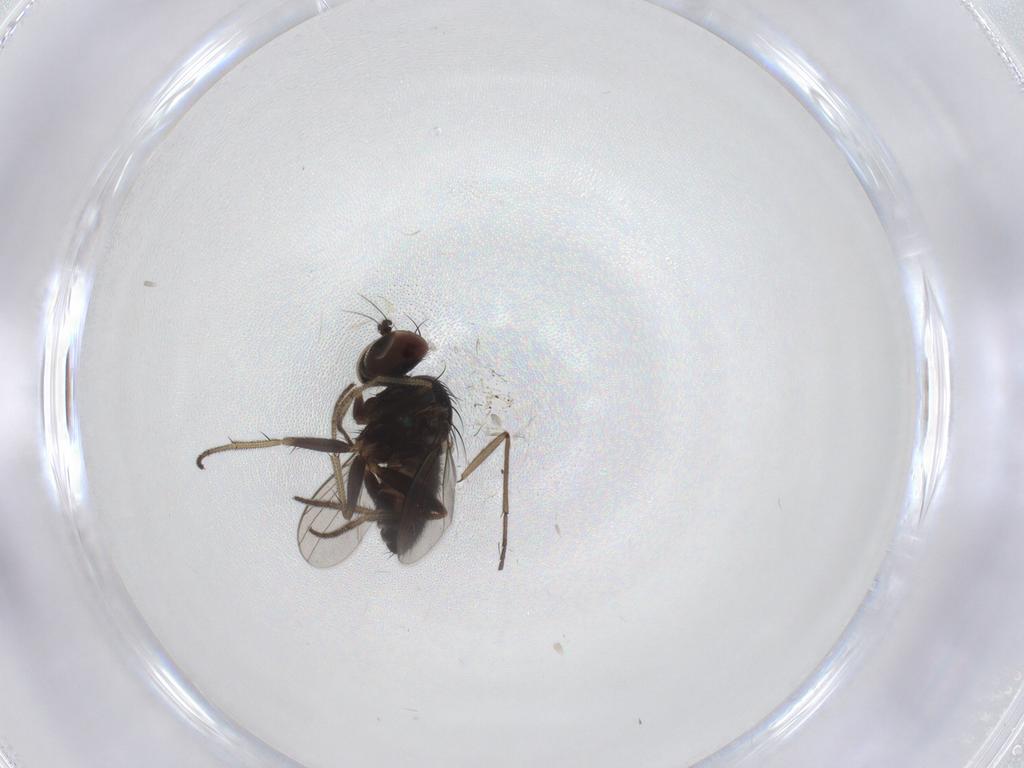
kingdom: Animalia
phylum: Arthropoda
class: Insecta
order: Diptera
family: Sciaridae
